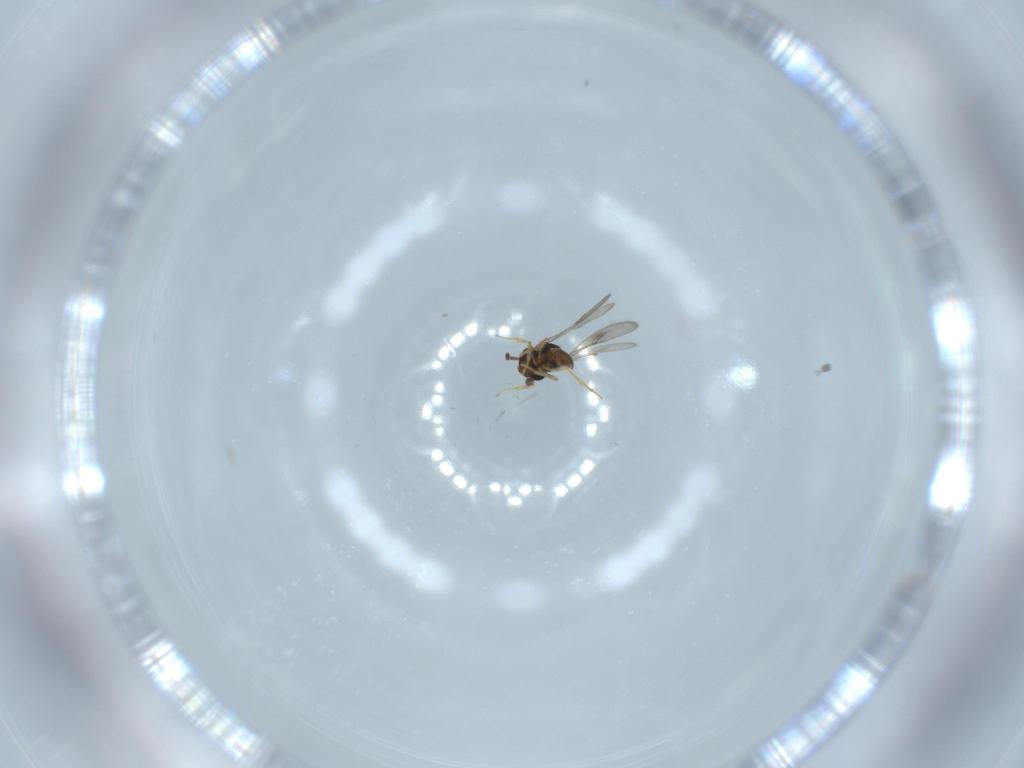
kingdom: Animalia
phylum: Arthropoda
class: Insecta
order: Hymenoptera
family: Scelionidae
